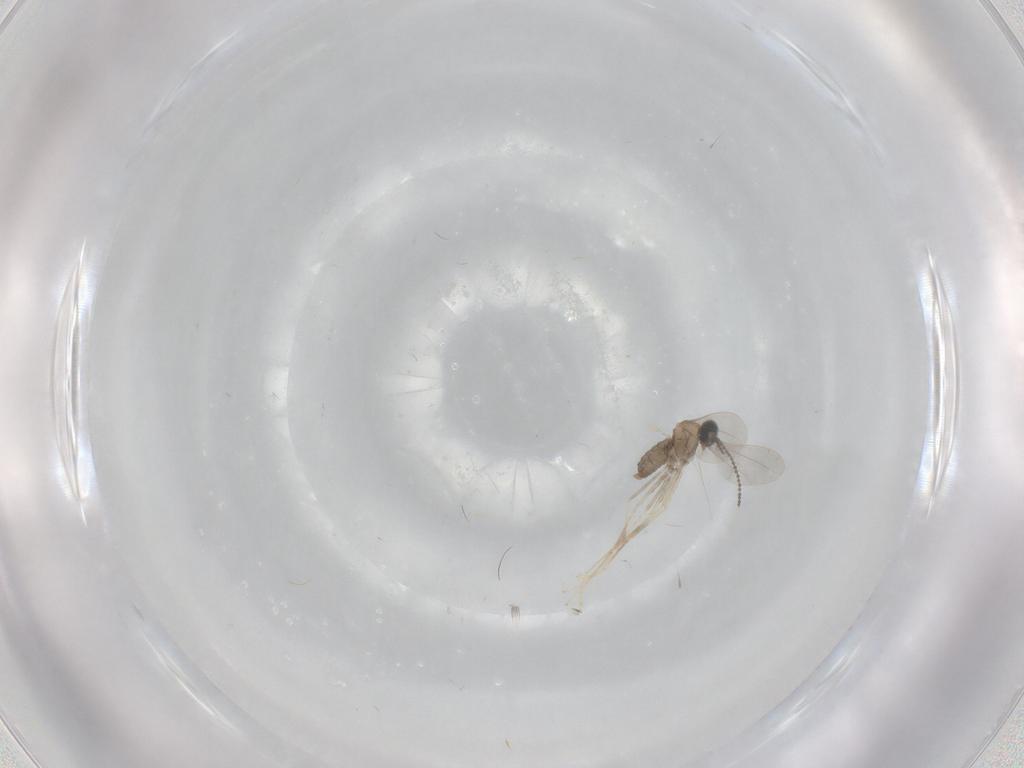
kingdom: Animalia
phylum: Arthropoda
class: Insecta
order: Diptera
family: Cecidomyiidae
